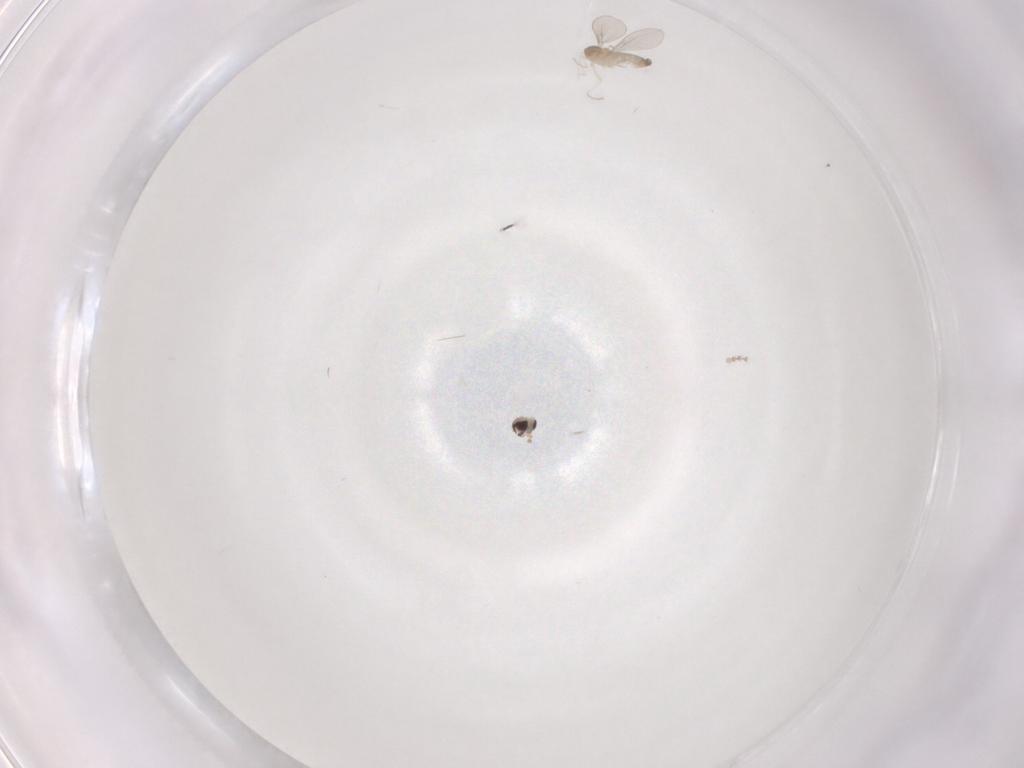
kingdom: Animalia
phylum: Arthropoda
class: Insecta
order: Diptera
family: Cecidomyiidae
